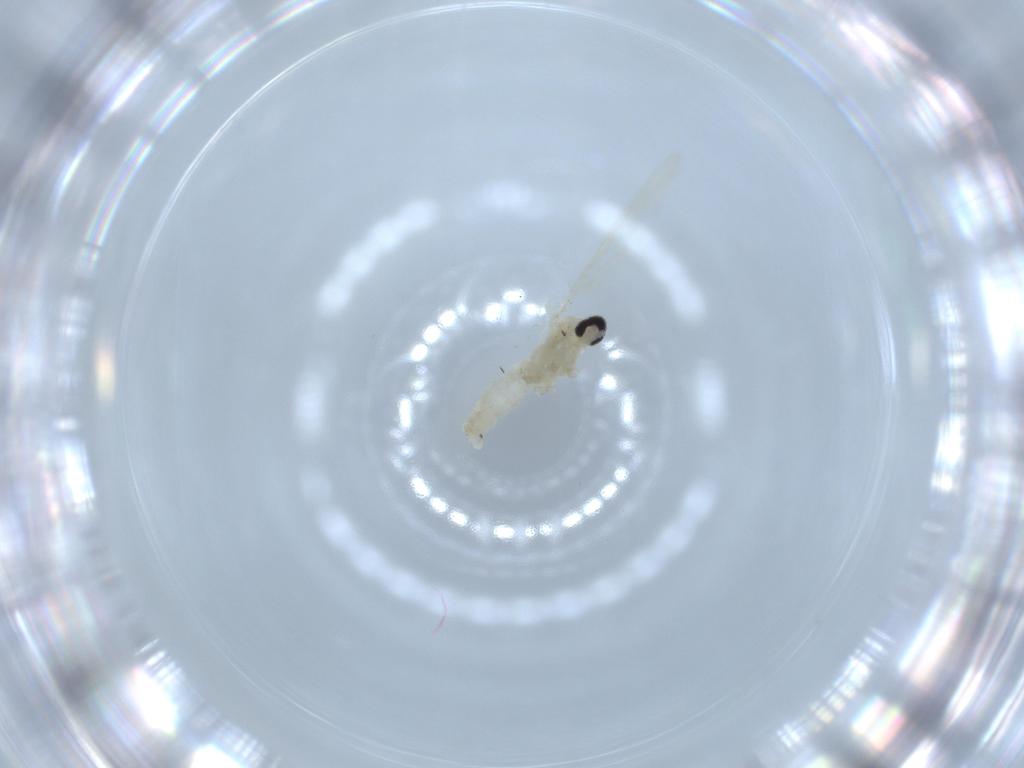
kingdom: Animalia
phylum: Arthropoda
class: Insecta
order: Diptera
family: Cecidomyiidae
